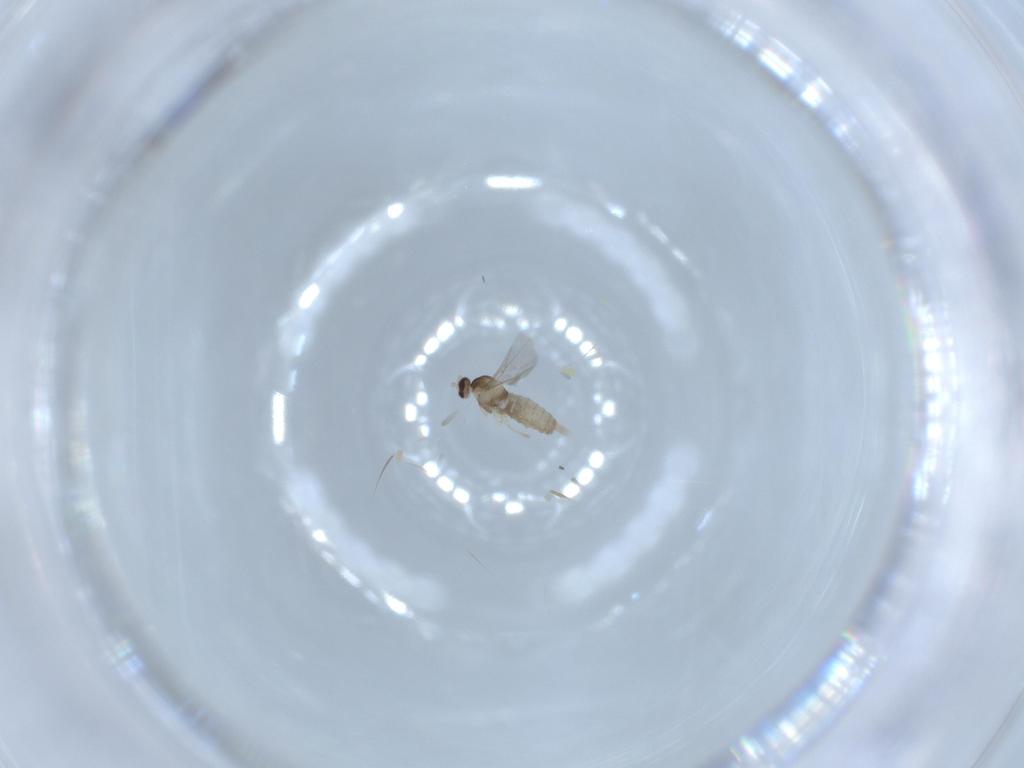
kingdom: Animalia
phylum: Arthropoda
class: Insecta
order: Diptera
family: Cecidomyiidae
